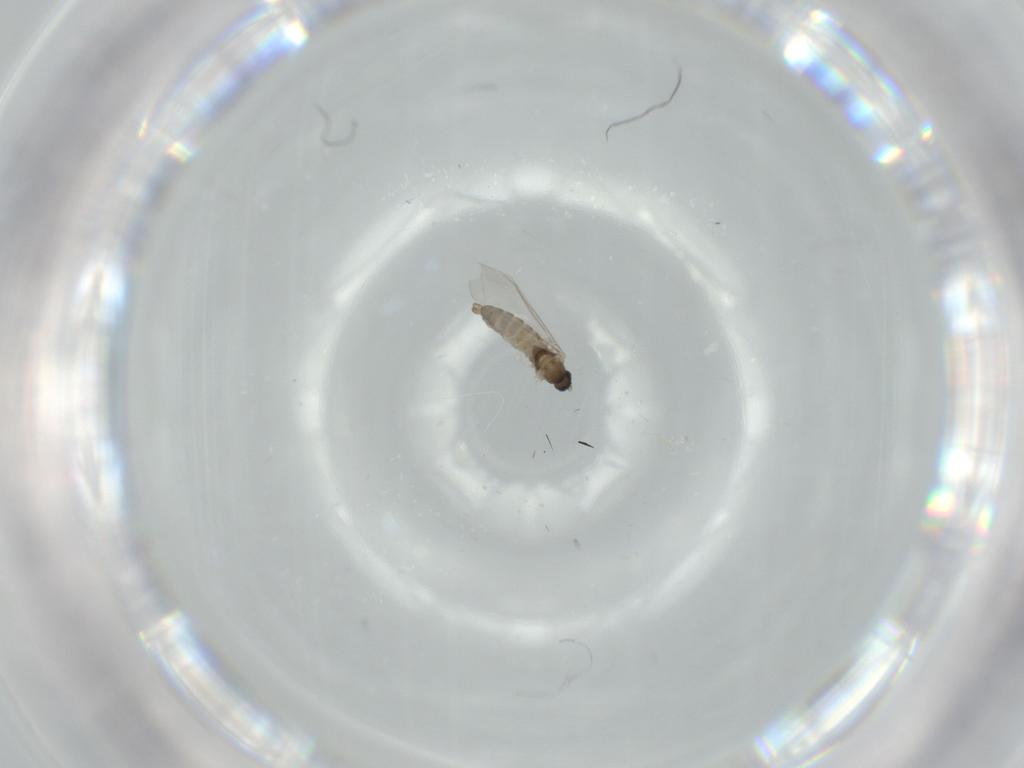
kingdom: Animalia
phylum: Arthropoda
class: Insecta
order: Diptera
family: Cecidomyiidae
